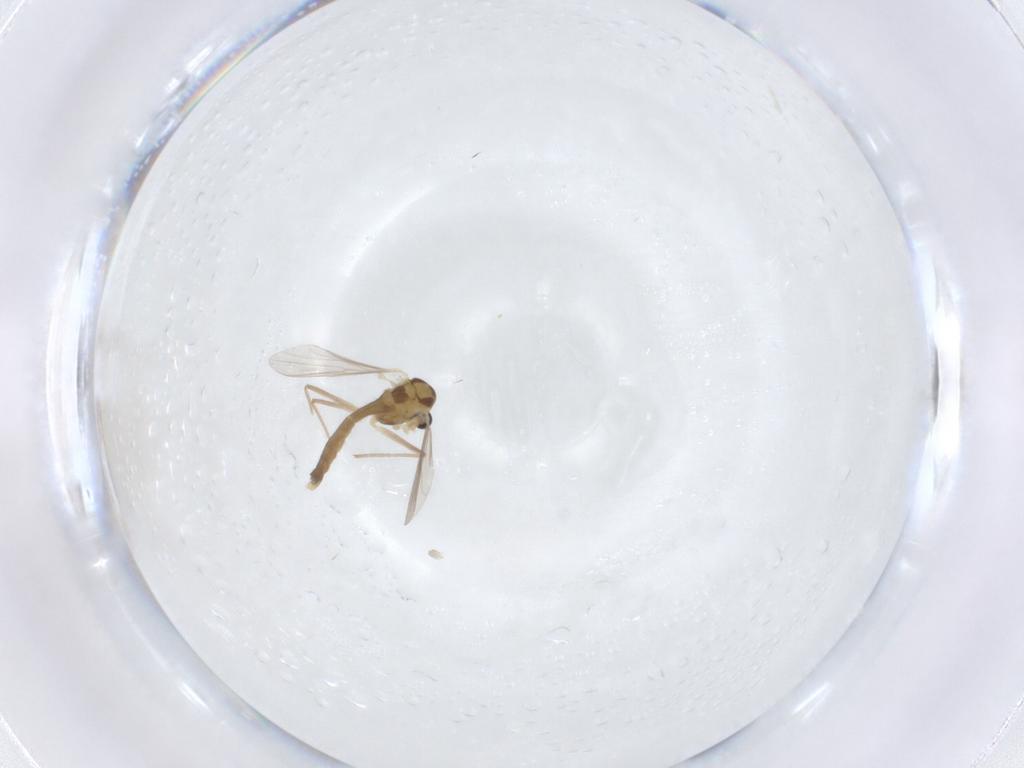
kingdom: Animalia
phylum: Arthropoda
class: Insecta
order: Diptera
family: Chironomidae
